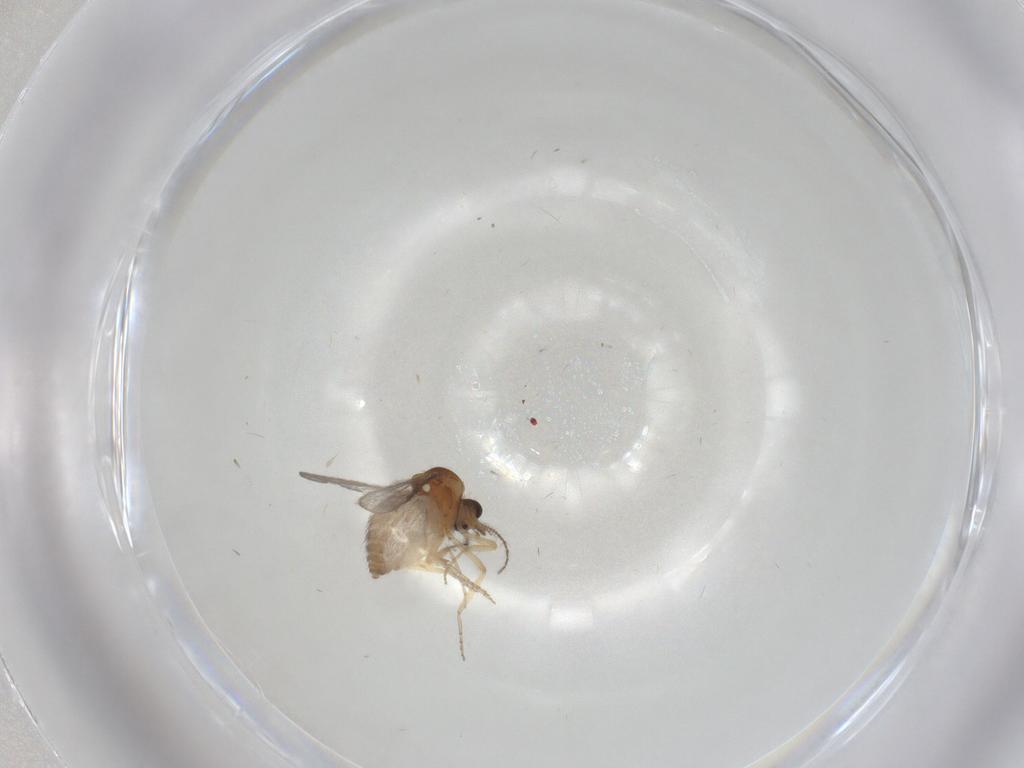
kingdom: Animalia
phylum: Arthropoda
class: Insecta
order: Diptera
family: Ceratopogonidae
